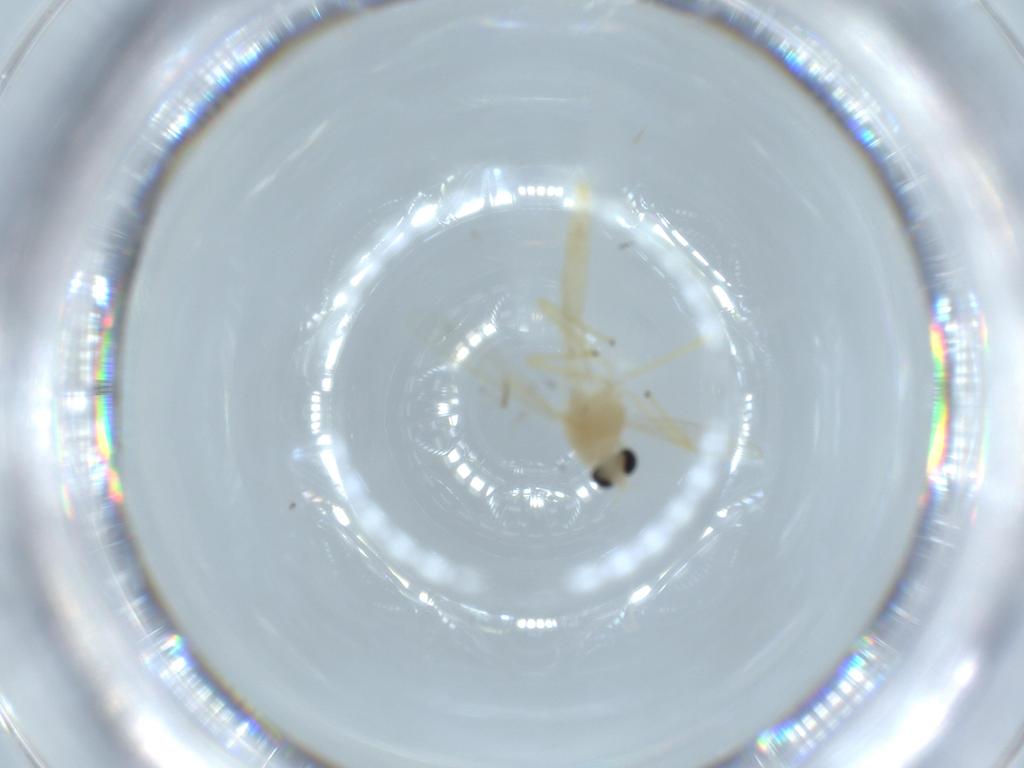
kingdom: Animalia
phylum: Arthropoda
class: Insecta
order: Diptera
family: Chironomidae
